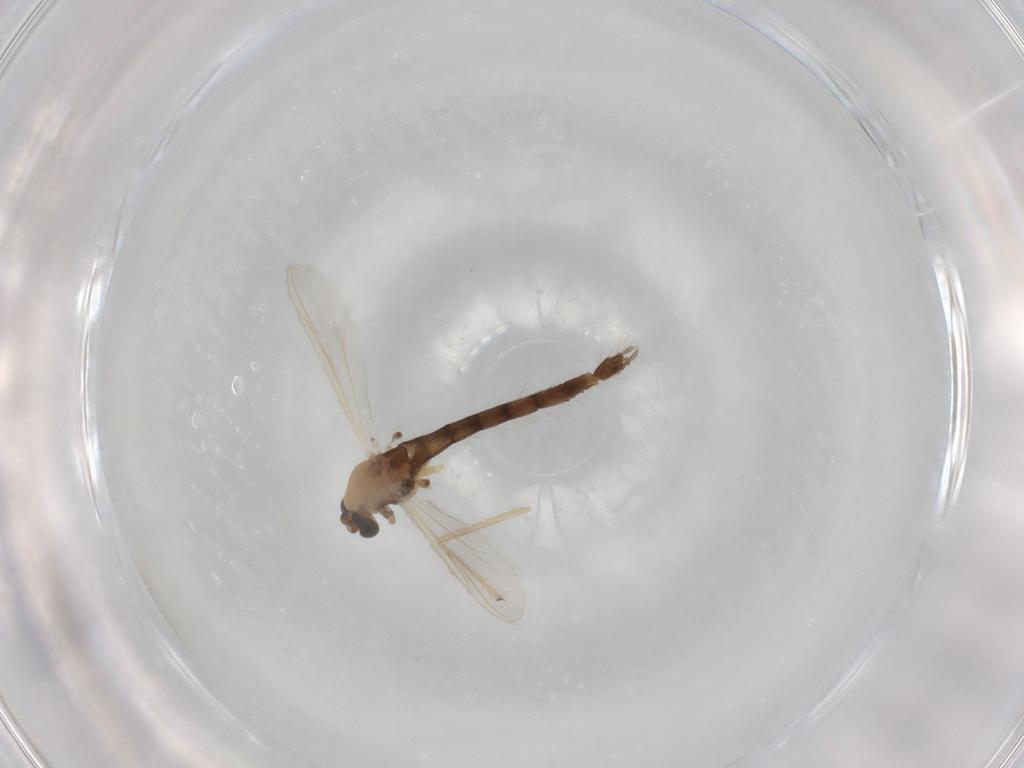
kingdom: Animalia
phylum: Arthropoda
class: Insecta
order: Diptera
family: Chironomidae
